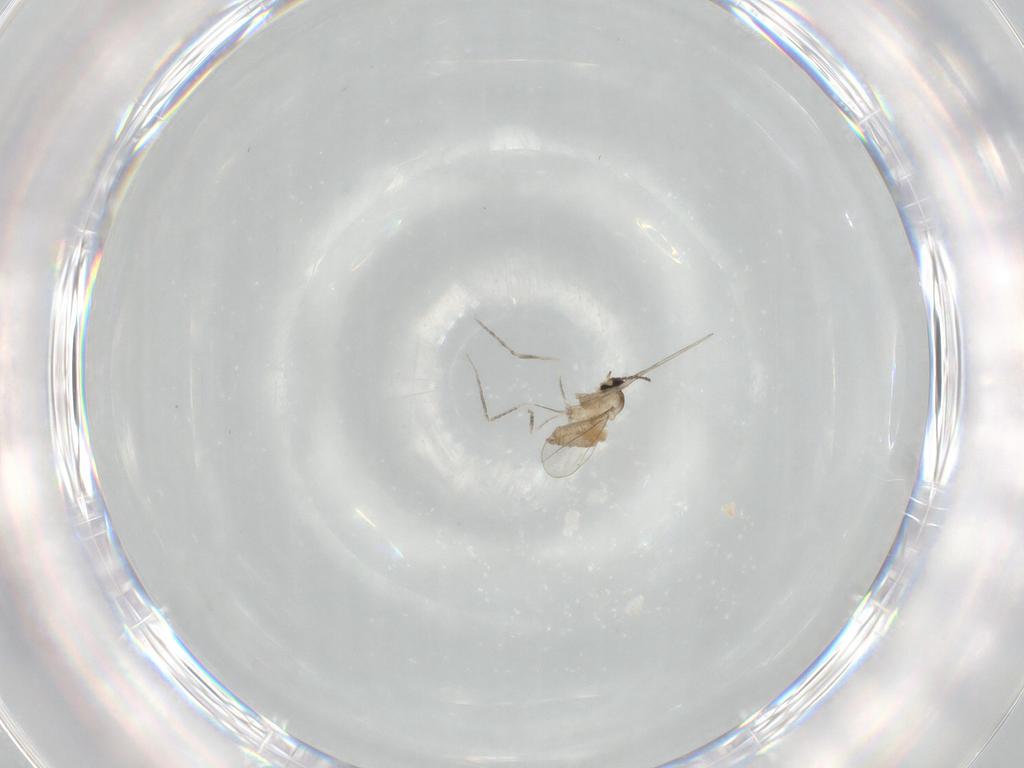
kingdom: Animalia
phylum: Arthropoda
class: Insecta
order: Diptera
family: Cecidomyiidae
